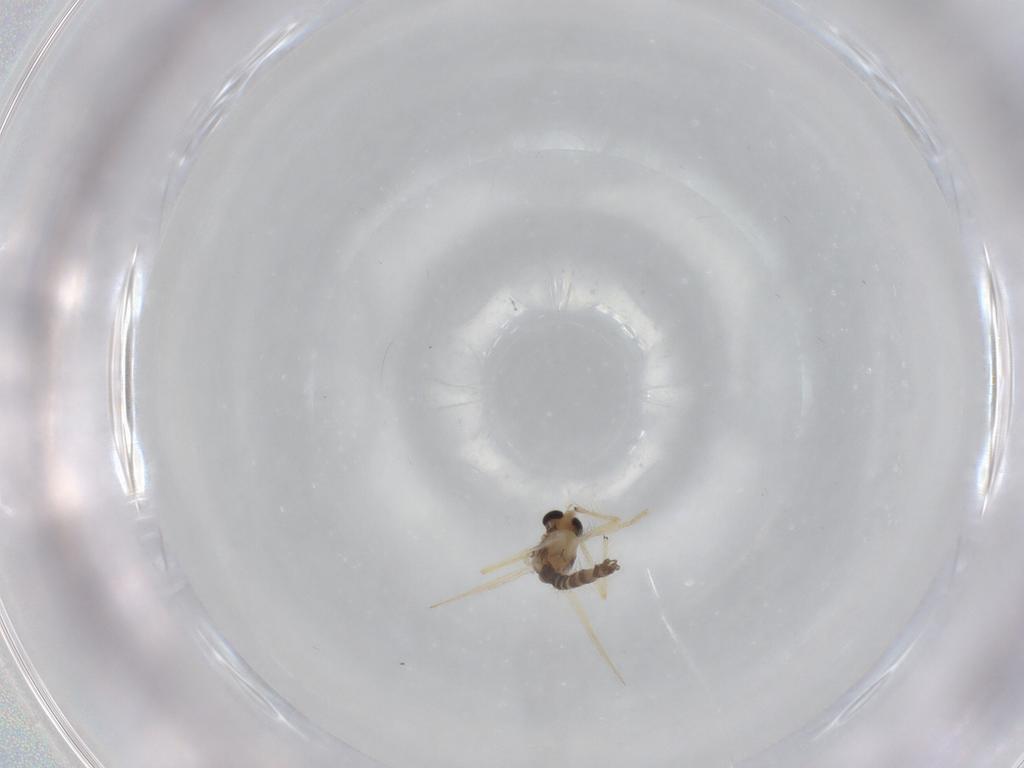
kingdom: Animalia
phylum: Arthropoda
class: Insecta
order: Diptera
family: Chironomidae
